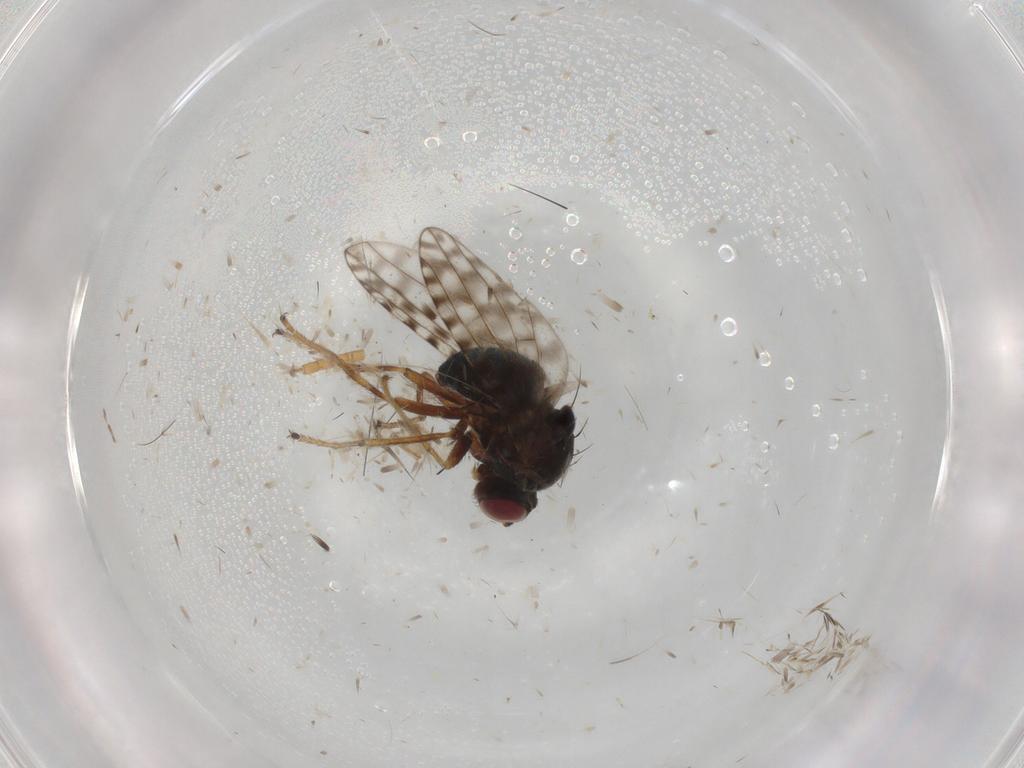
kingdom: Animalia
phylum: Arthropoda
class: Insecta
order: Diptera
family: Ephydridae
